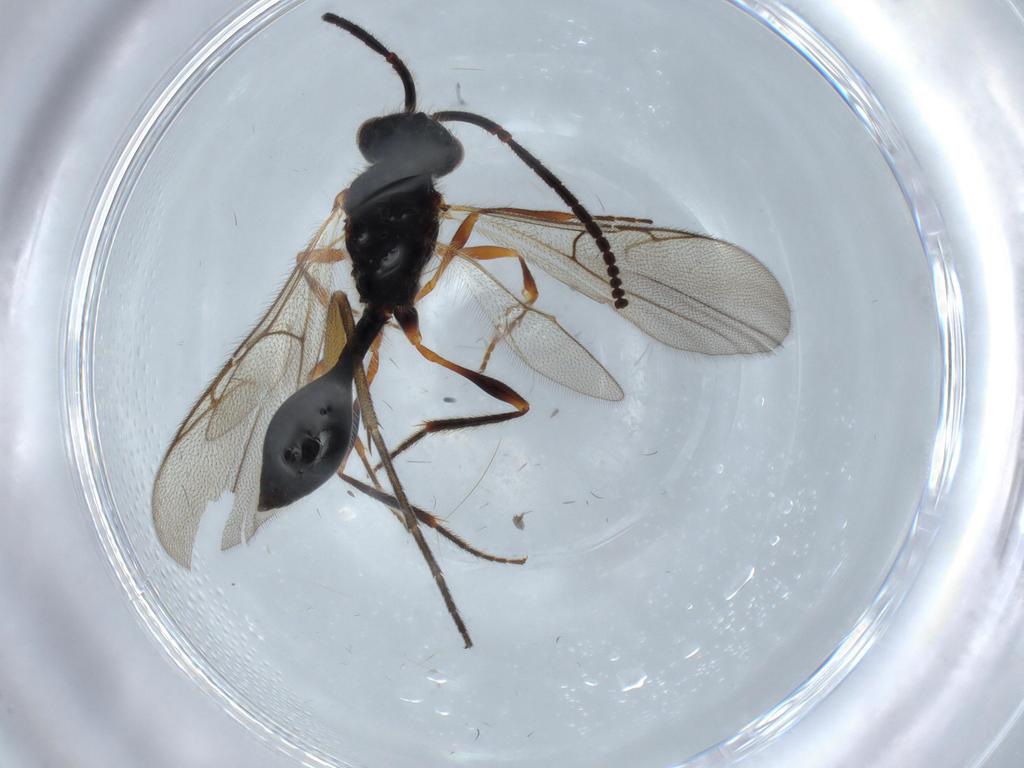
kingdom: Animalia
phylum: Arthropoda
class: Insecta
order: Hymenoptera
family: Diapriidae
